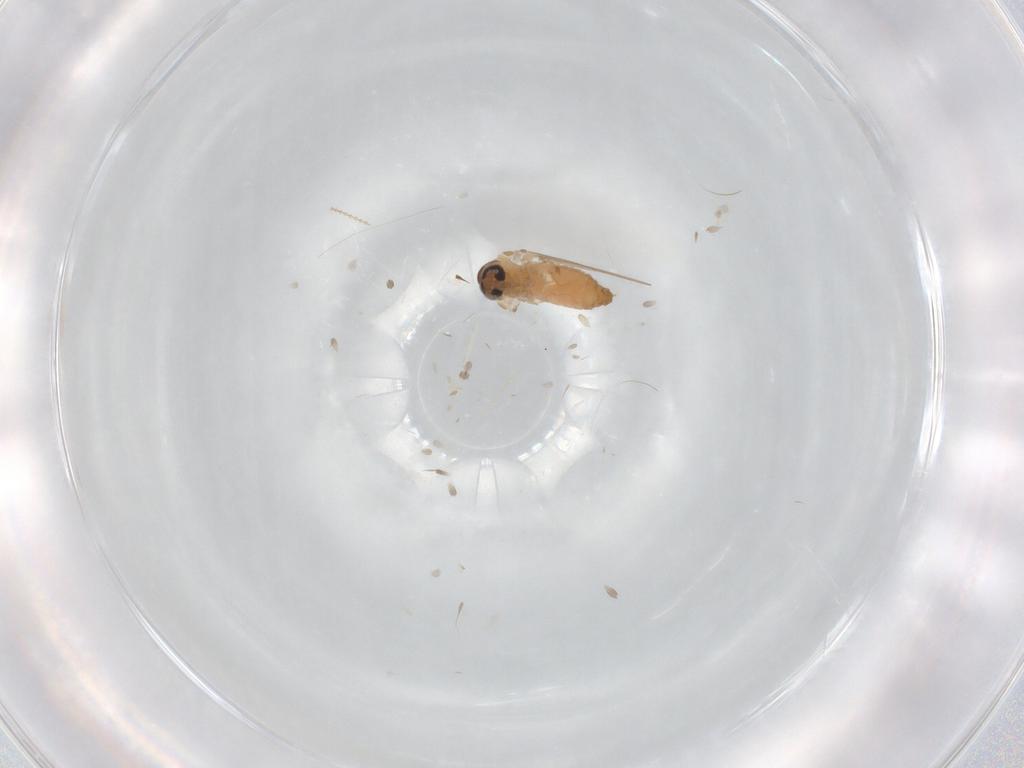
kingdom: Animalia
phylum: Arthropoda
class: Insecta
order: Diptera
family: Psychodidae
